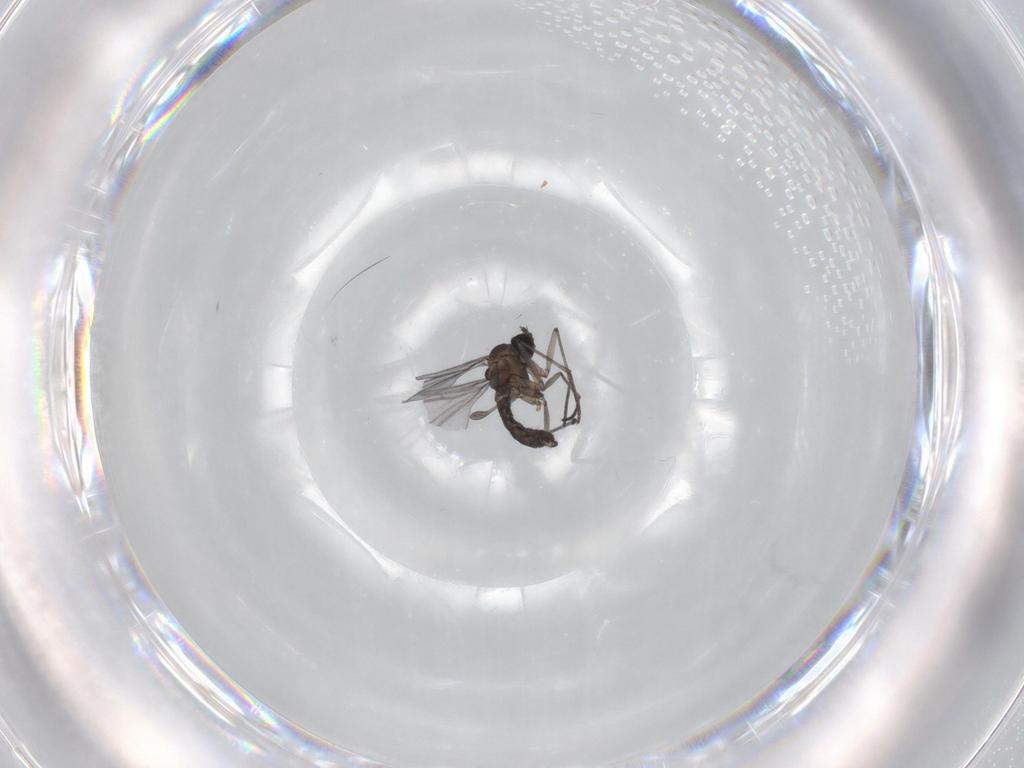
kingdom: Animalia
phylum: Arthropoda
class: Insecta
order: Diptera
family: Sciaridae
